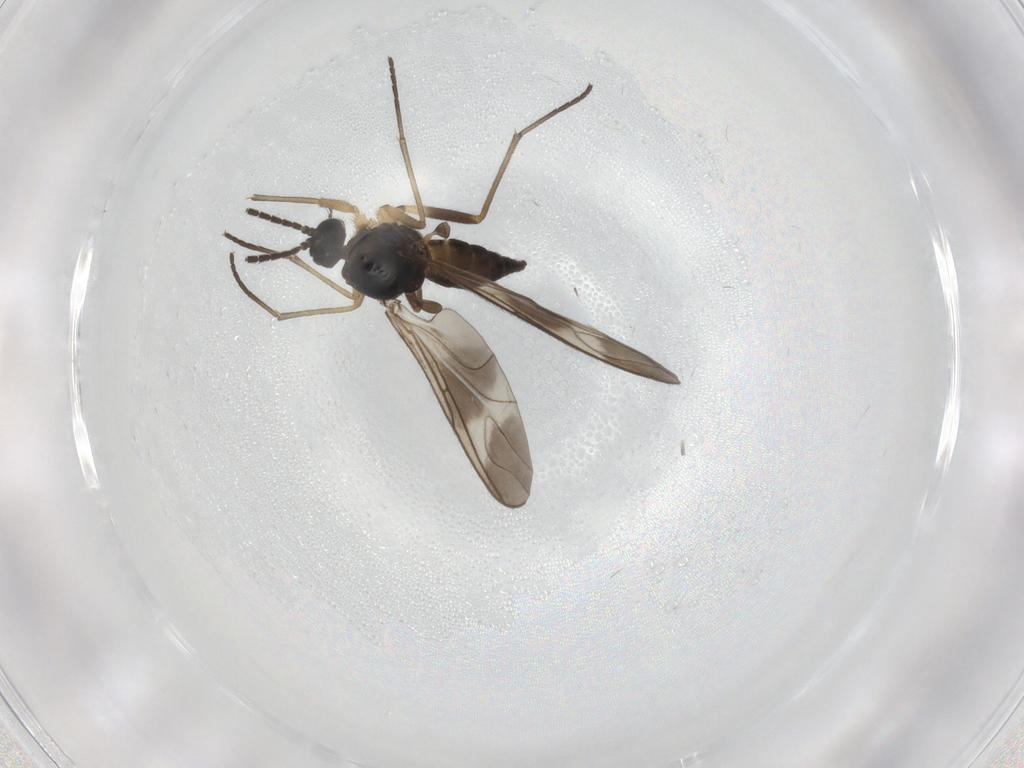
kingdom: Animalia
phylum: Arthropoda
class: Insecta
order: Diptera
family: Sciaridae
